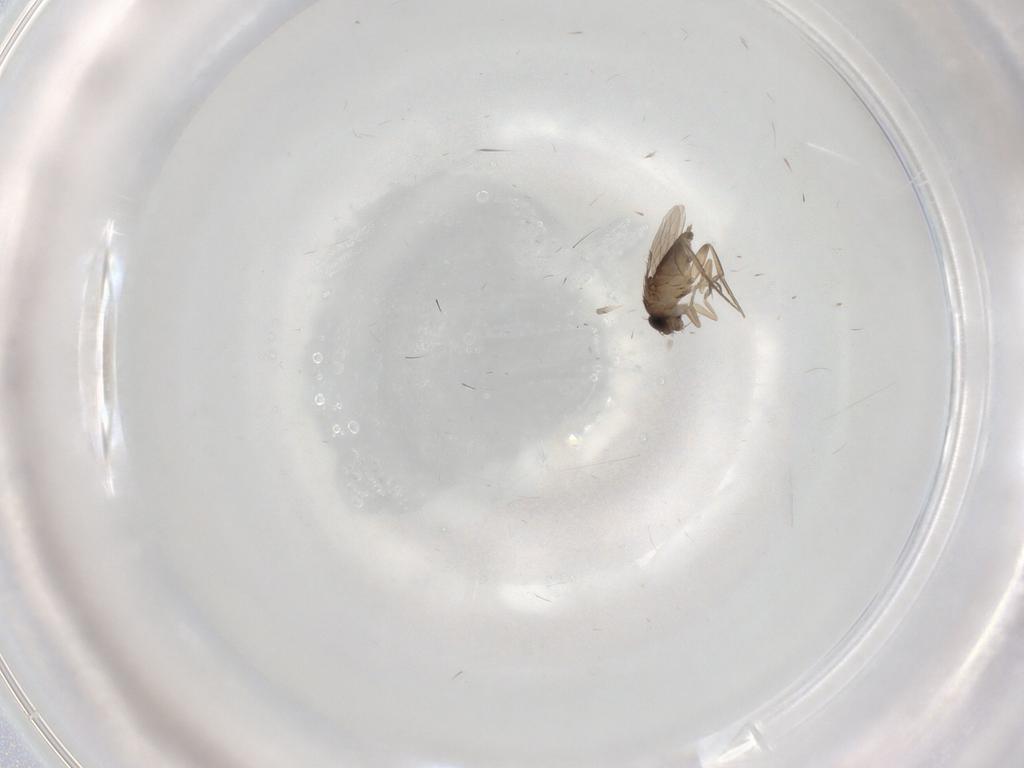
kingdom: Animalia
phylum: Arthropoda
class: Insecta
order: Diptera
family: Phoridae
